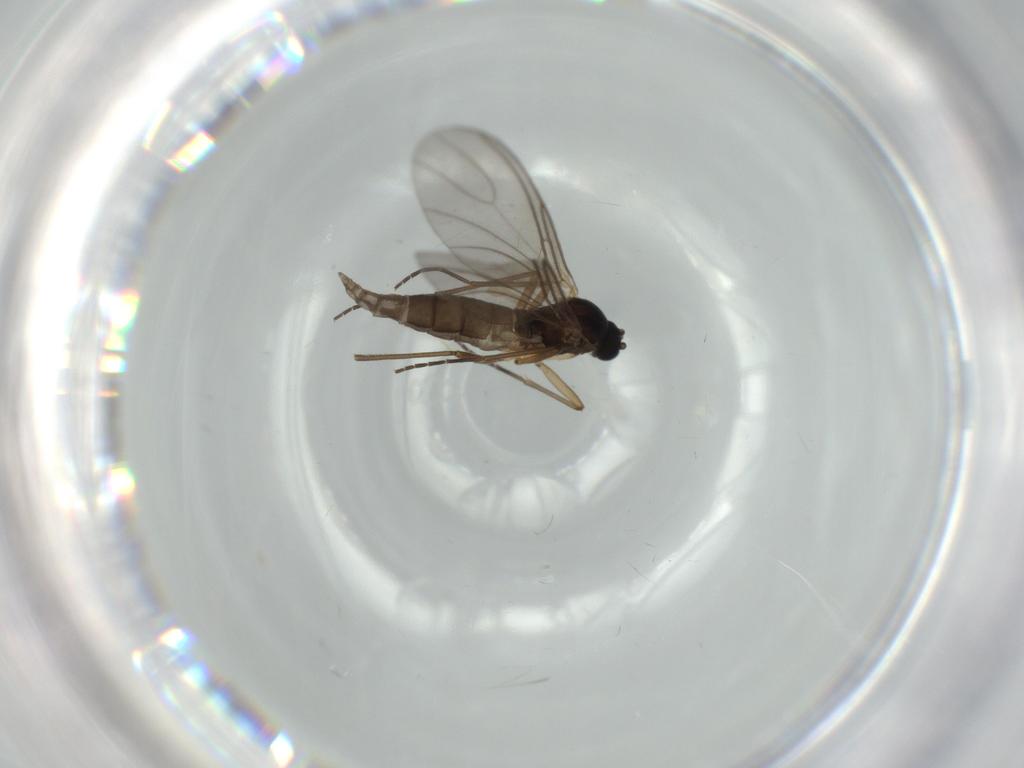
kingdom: Animalia
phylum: Arthropoda
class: Insecta
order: Diptera
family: Sciaridae
